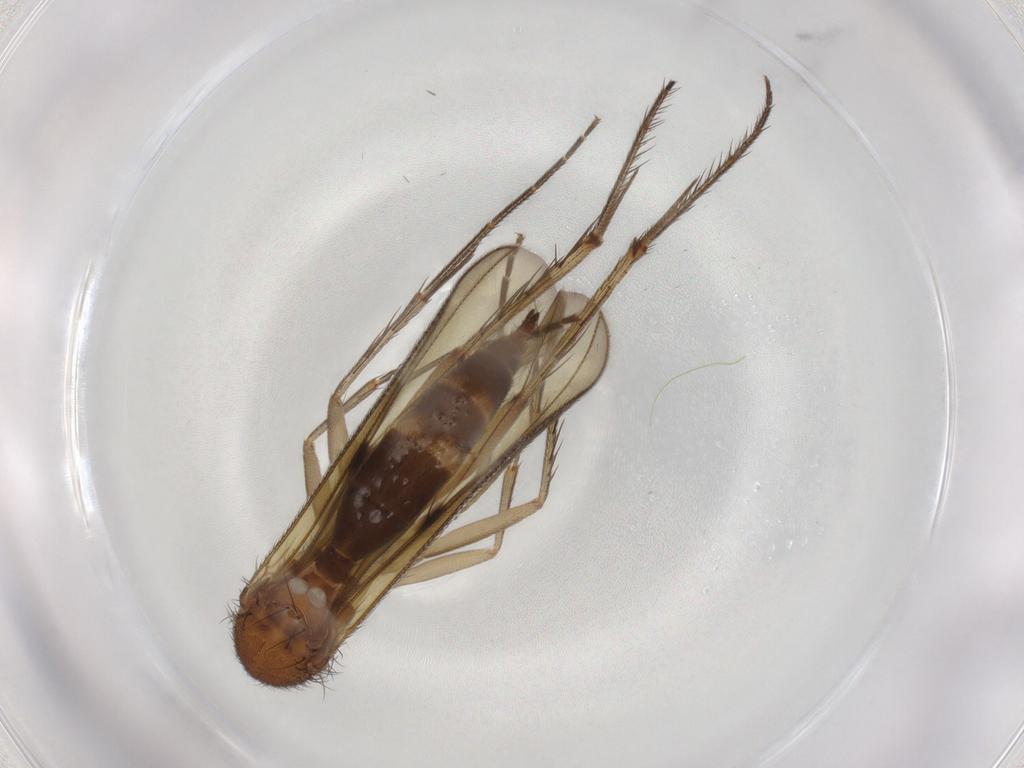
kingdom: Animalia
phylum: Arthropoda
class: Insecta
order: Diptera
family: Mycetophilidae
